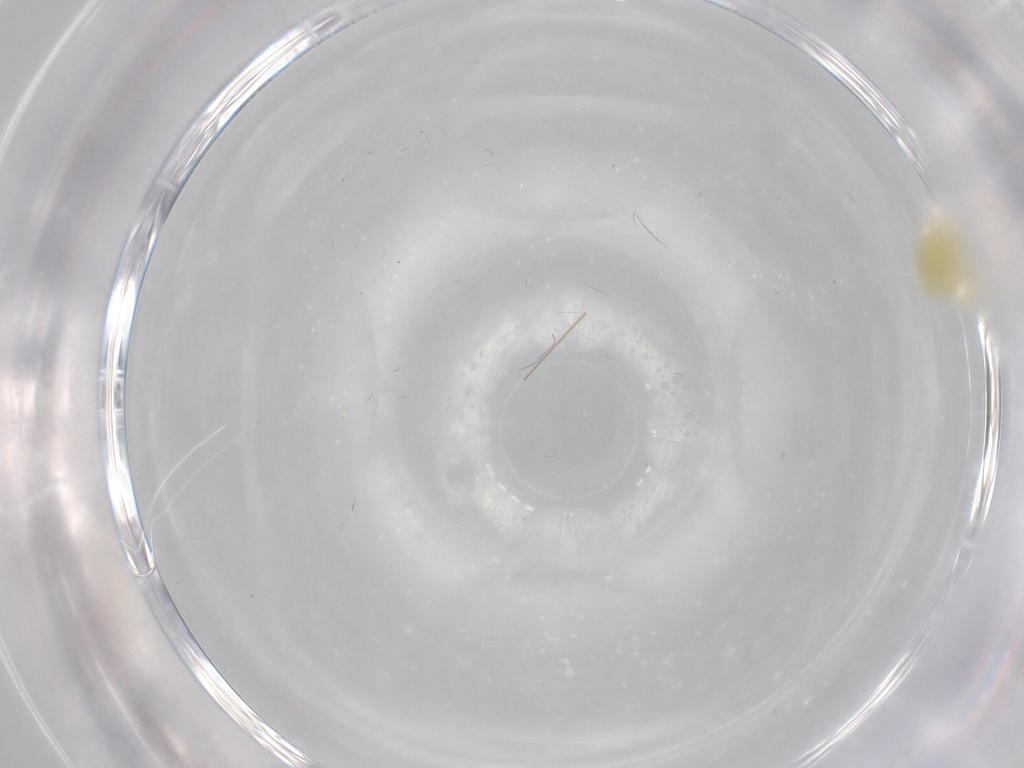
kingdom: Animalia
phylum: Arthropoda
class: Insecta
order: Hemiptera
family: Aleyrodidae
